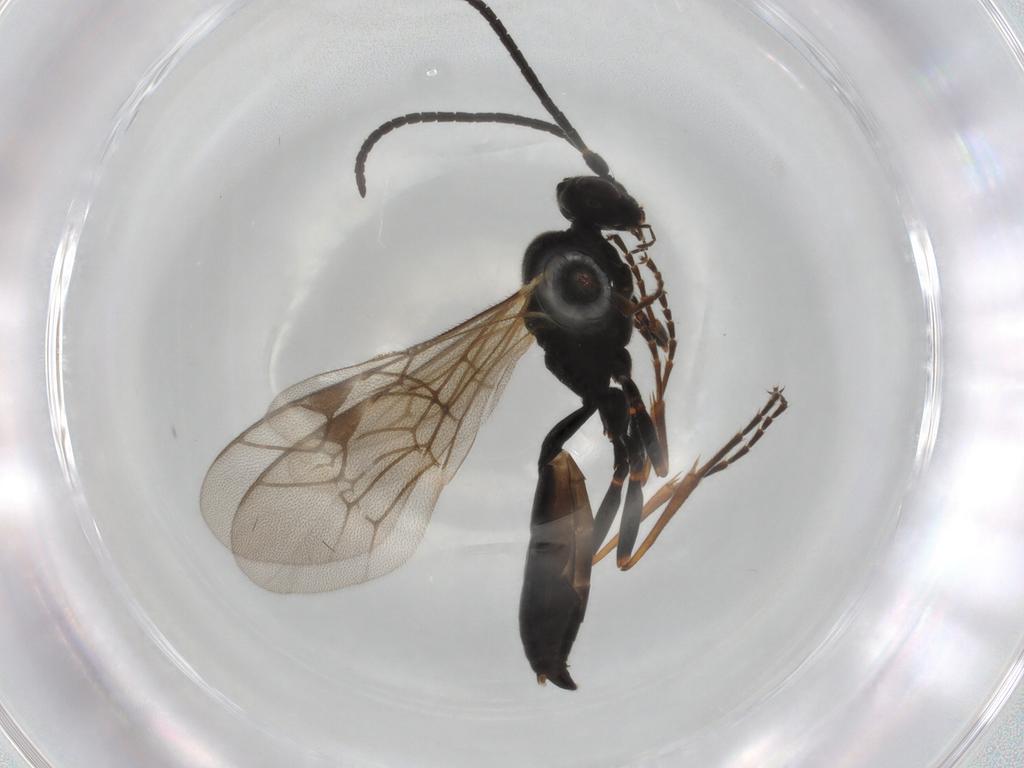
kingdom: Animalia
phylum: Arthropoda
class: Insecta
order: Hymenoptera
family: Ichneumonidae
